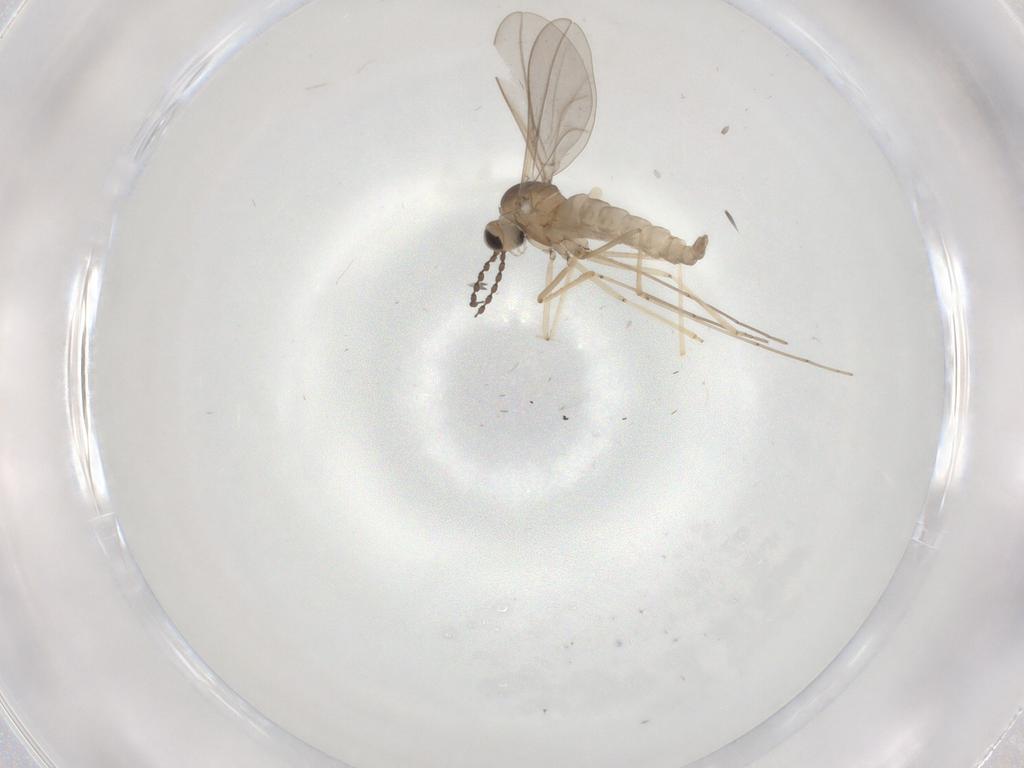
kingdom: Animalia
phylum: Arthropoda
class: Insecta
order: Diptera
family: Cecidomyiidae
